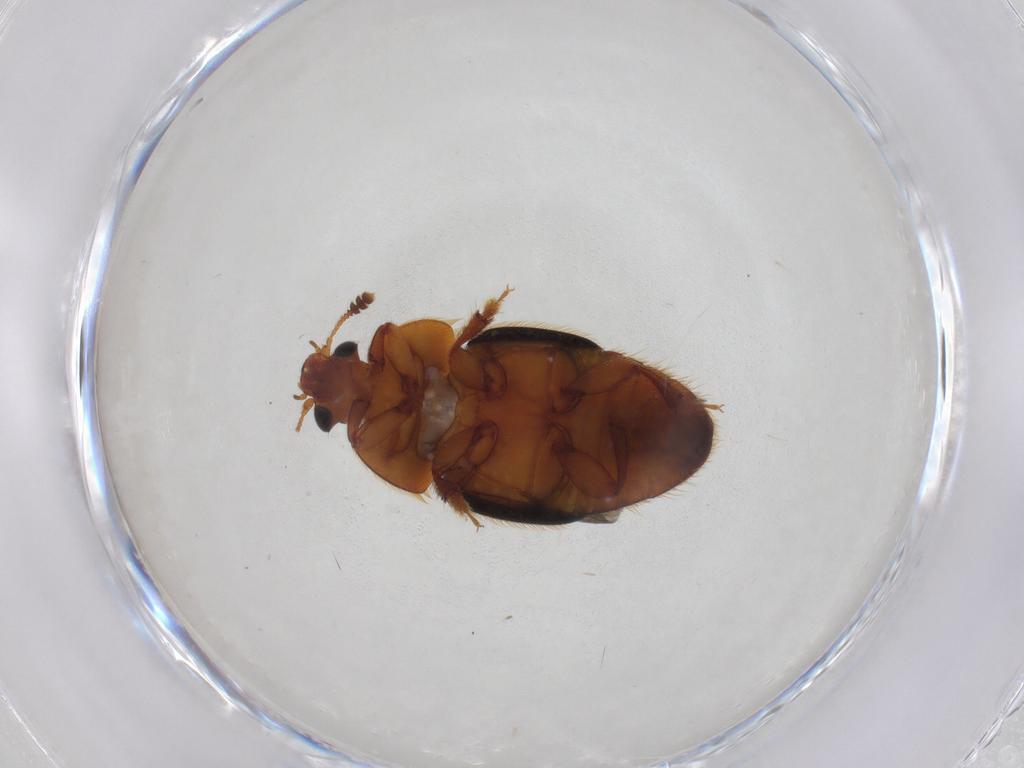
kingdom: Animalia
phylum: Arthropoda
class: Insecta
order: Coleoptera
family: Nitidulidae
